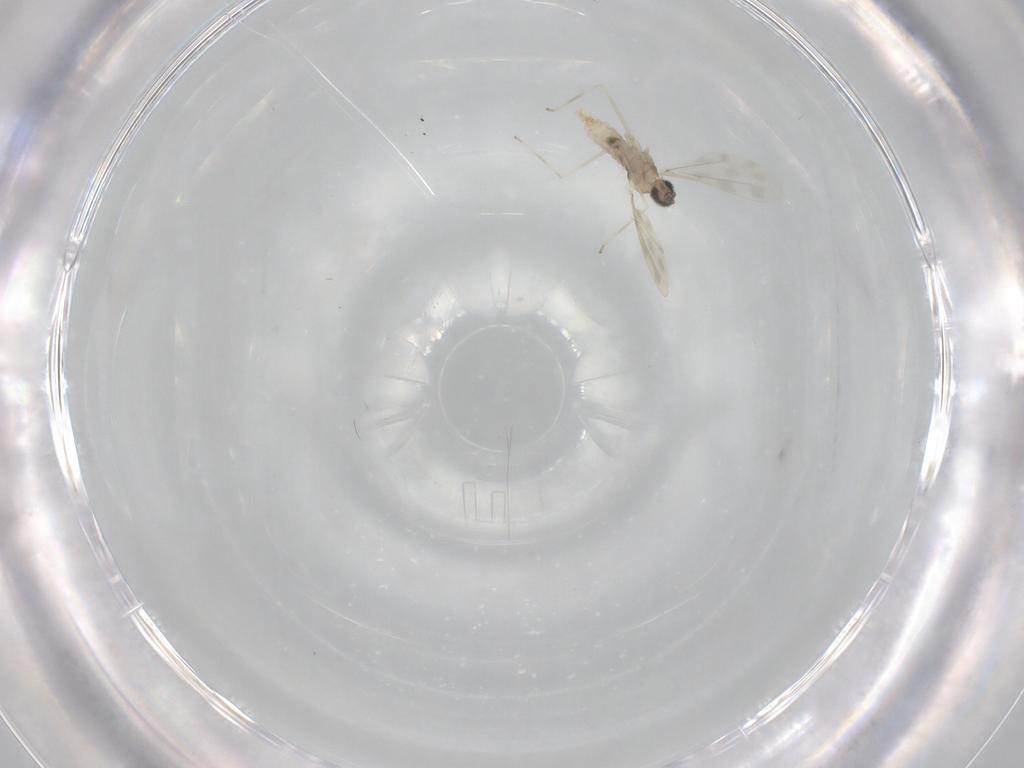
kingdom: Animalia
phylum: Arthropoda
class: Insecta
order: Diptera
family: Cecidomyiidae
